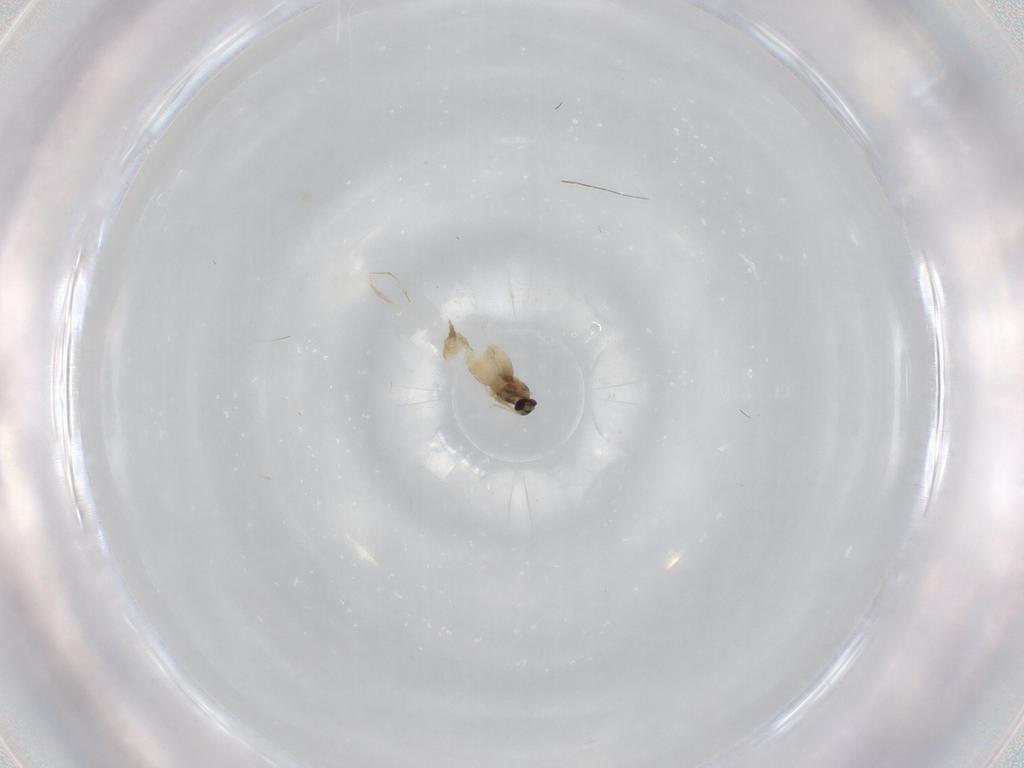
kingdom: Animalia
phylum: Arthropoda
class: Insecta
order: Diptera
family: Cecidomyiidae
